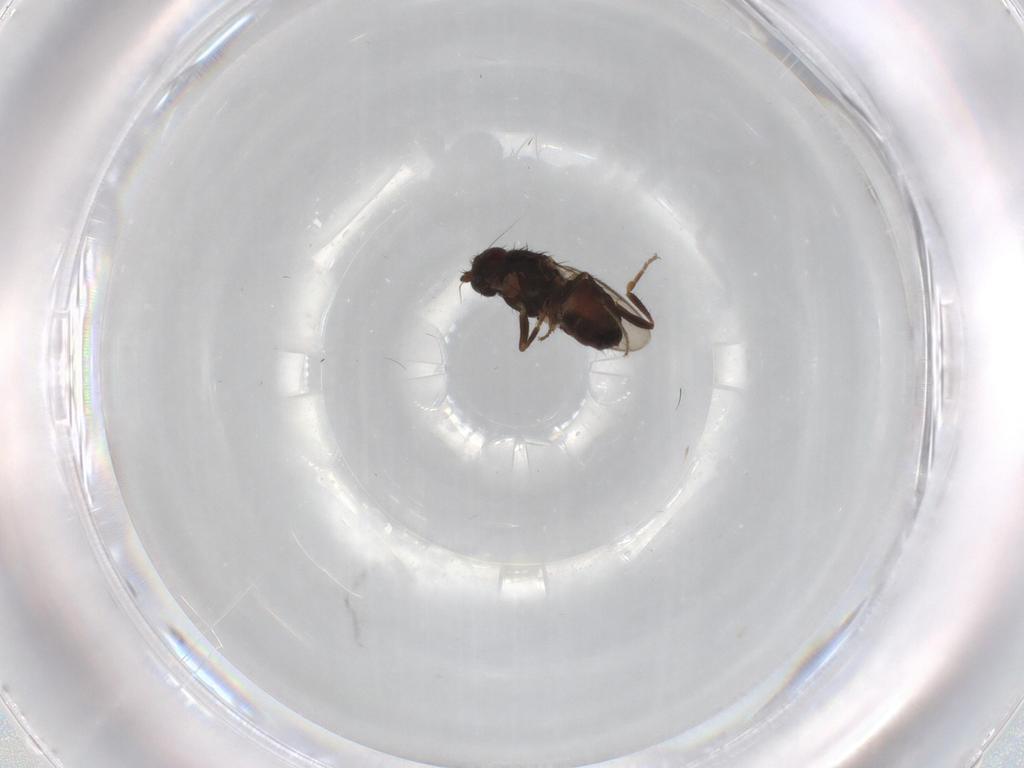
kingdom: Animalia
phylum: Arthropoda
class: Insecta
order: Diptera
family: Sphaeroceridae
